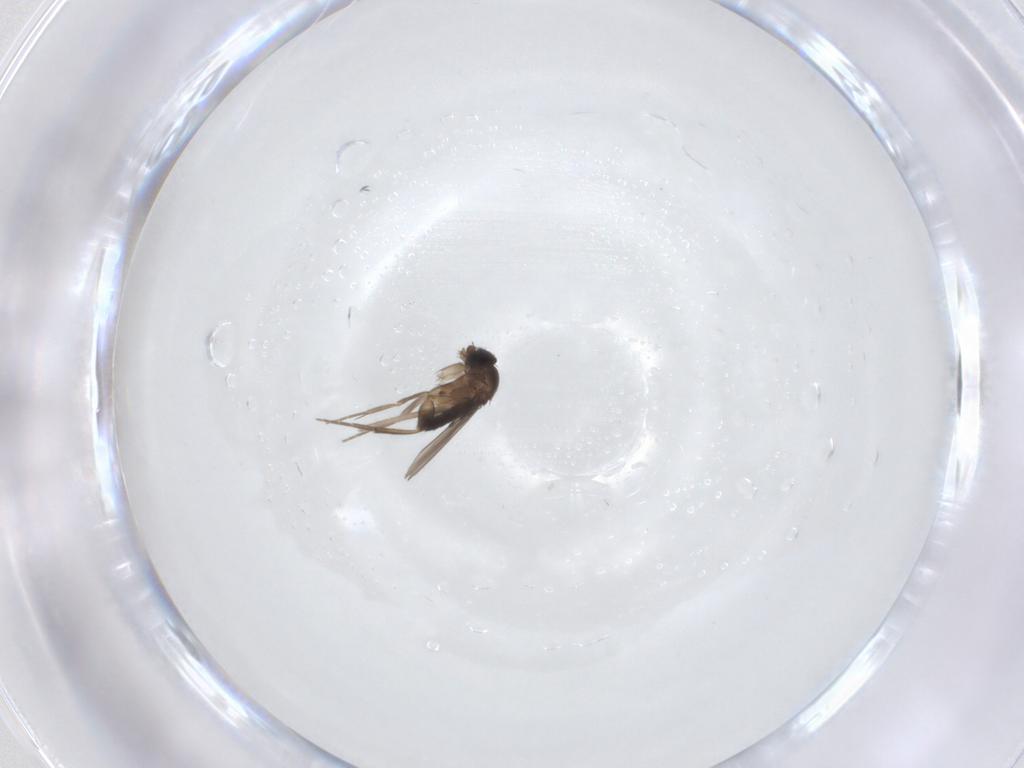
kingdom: Animalia
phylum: Arthropoda
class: Insecta
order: Diptera
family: Phoridae
